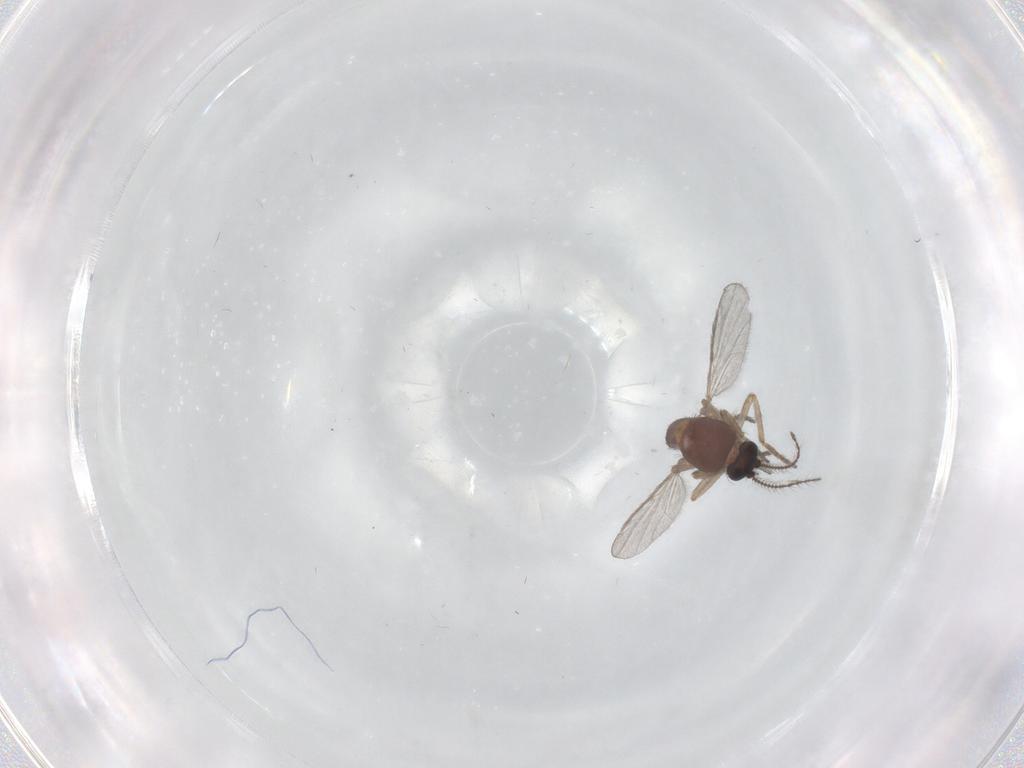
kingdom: Animalia
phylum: Arthropoda
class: Insecta
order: Diptera
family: Ceratopogonidae
